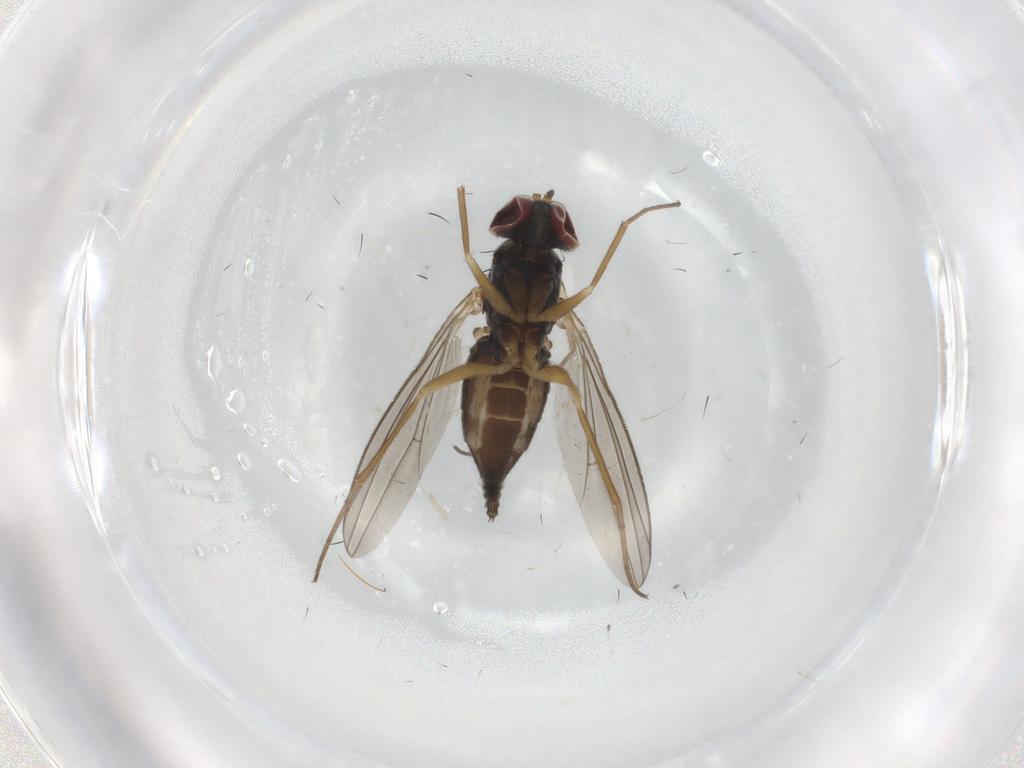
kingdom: Animalia
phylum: Arthropoda
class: Insecta
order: Diptera
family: Dolichopodidae
